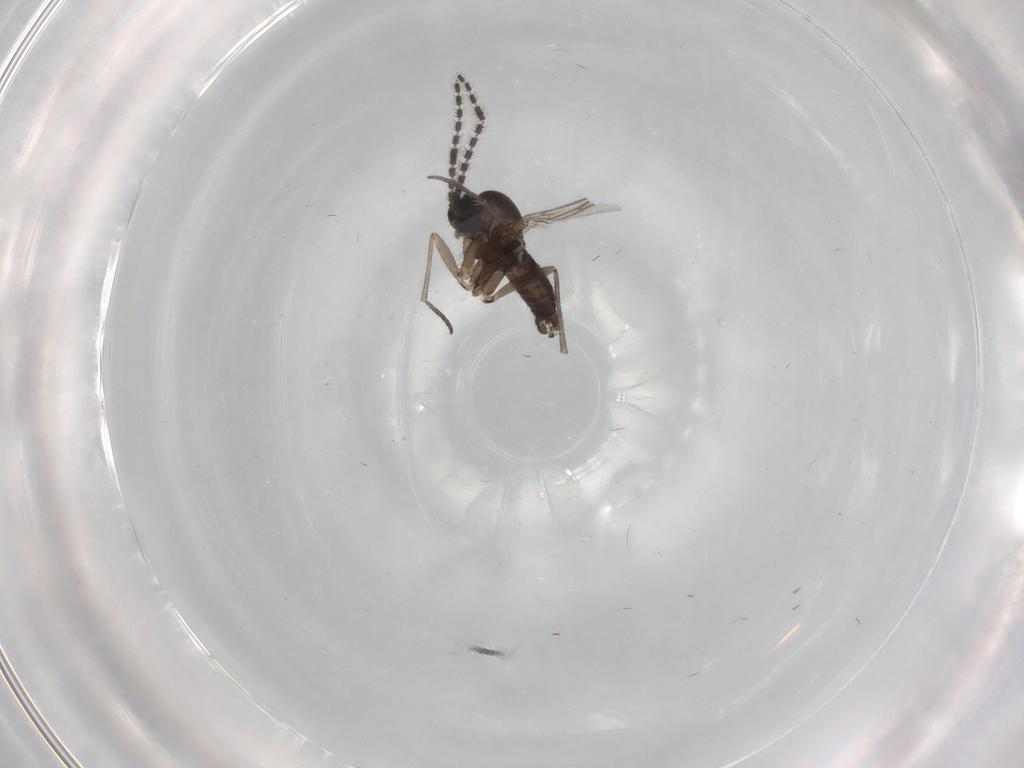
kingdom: Animalia
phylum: Arthropoda
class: Insecta
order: Diptera
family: Sciaridae
